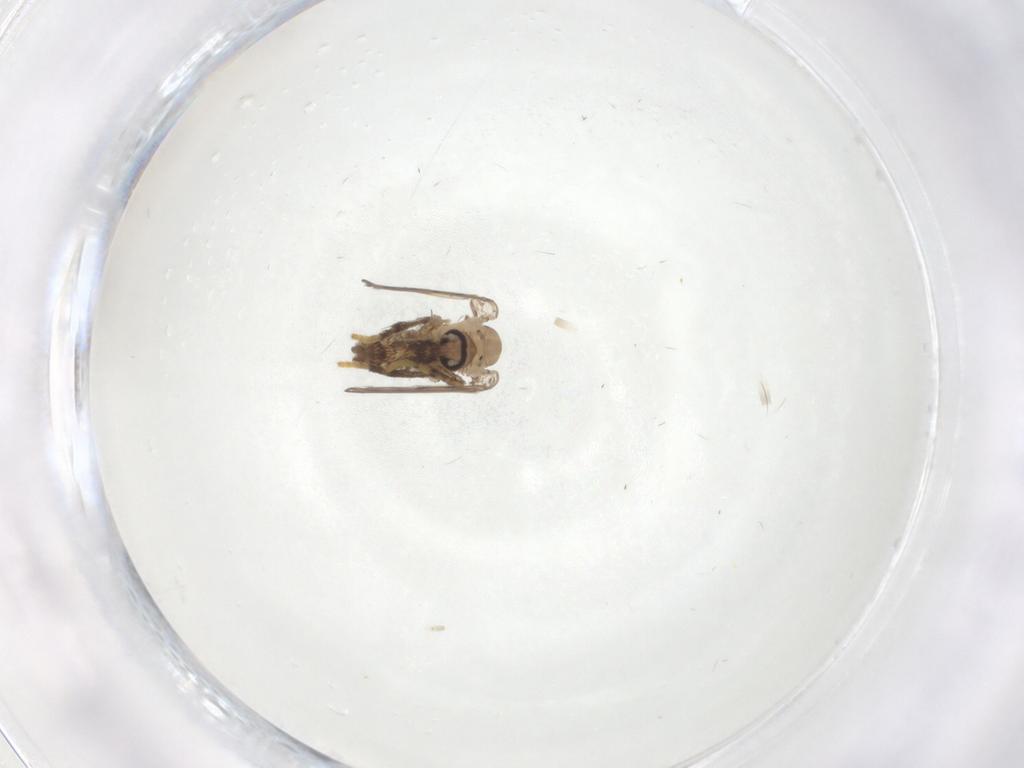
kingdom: Animalia
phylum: Arthropoda
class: Insecta
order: Diptera
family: Psychodidae
